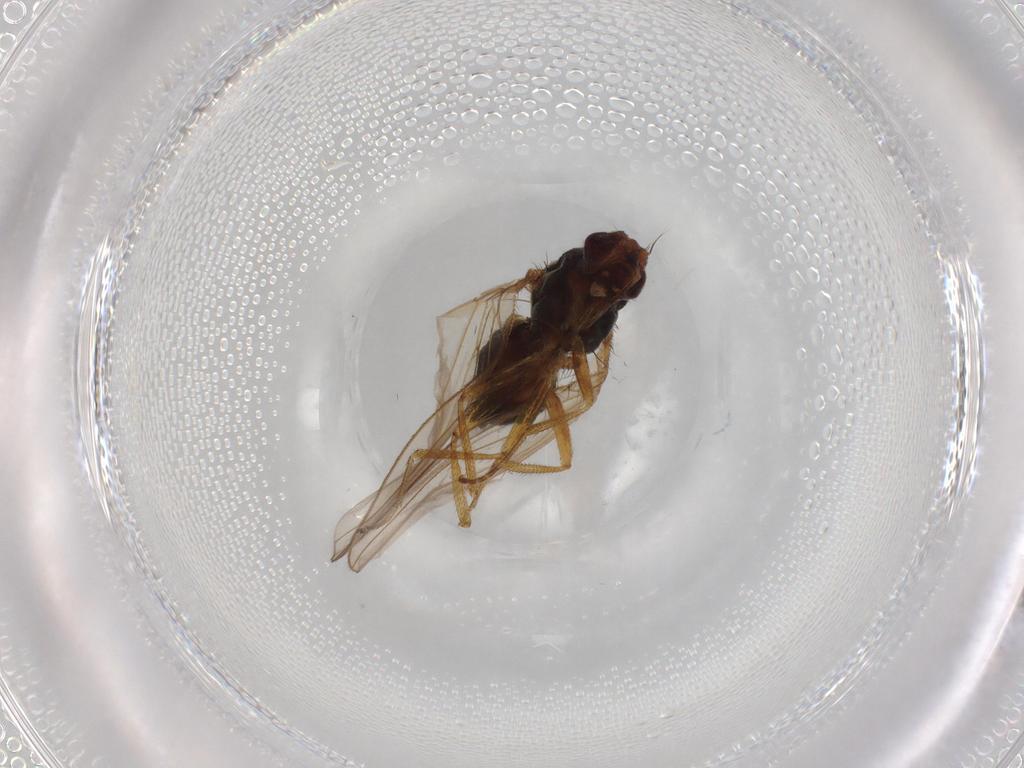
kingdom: Animalia
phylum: Arthropoda
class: Insecta
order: Diptera
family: Drosophilidae
